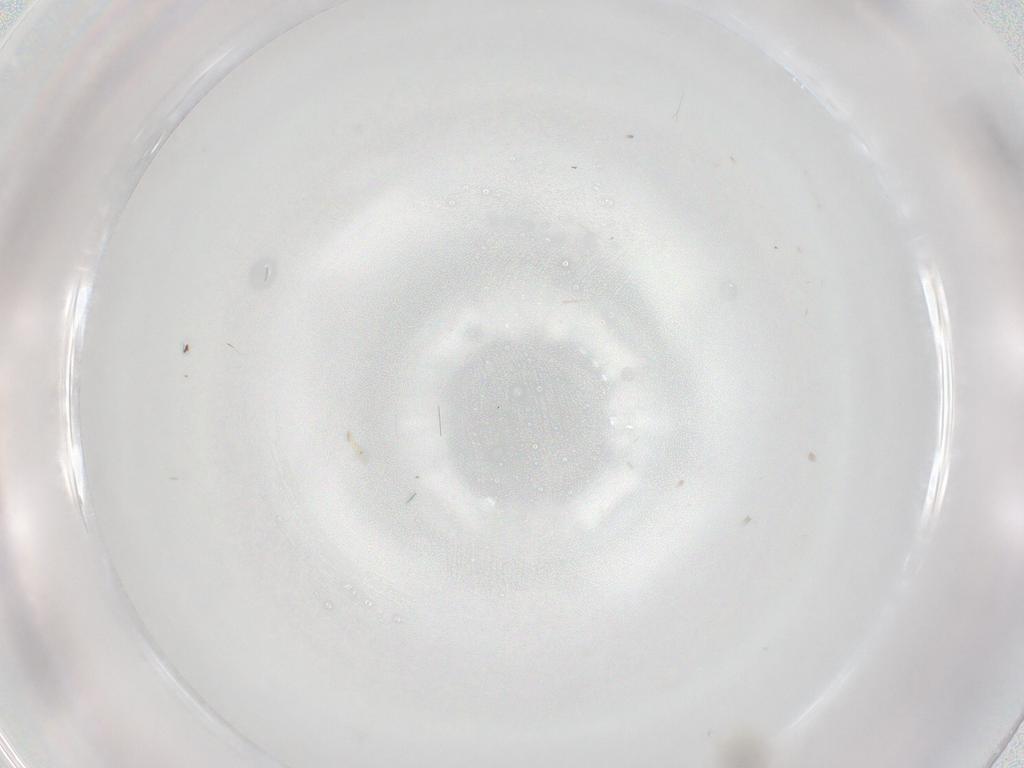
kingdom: Animalia
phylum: Arthropoda
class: Insecta
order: Diptera
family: Cecidomyiidae
